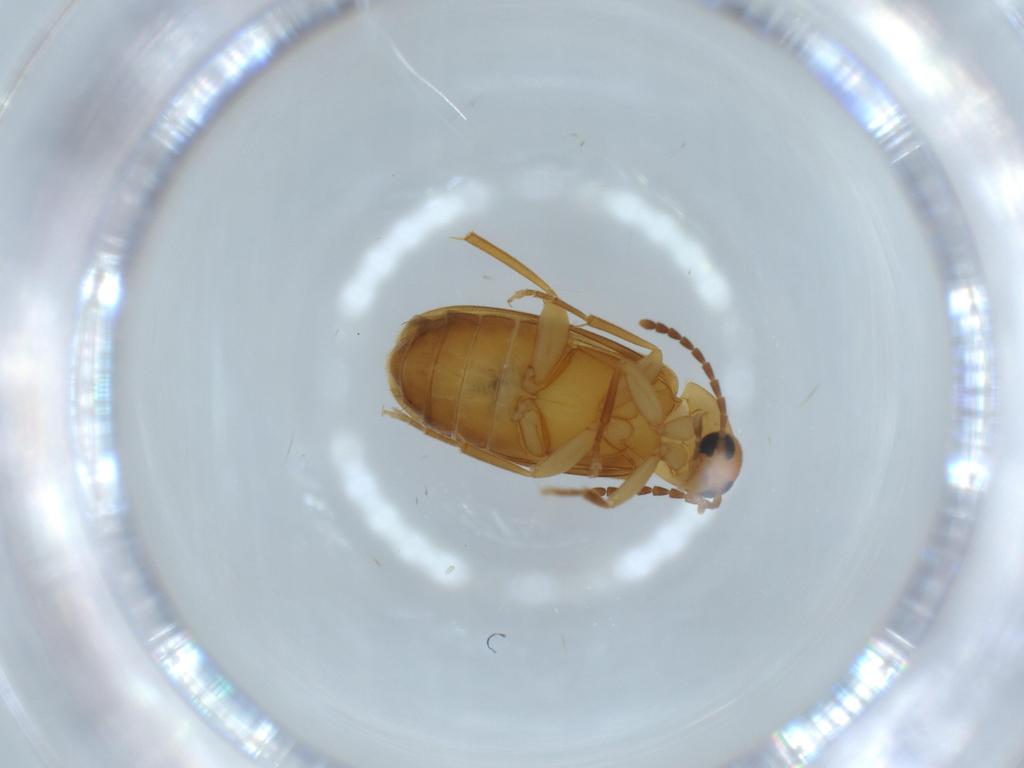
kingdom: Animalia
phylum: Arthropoda
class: Insecta
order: Coleoptera
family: Scraptiidae
